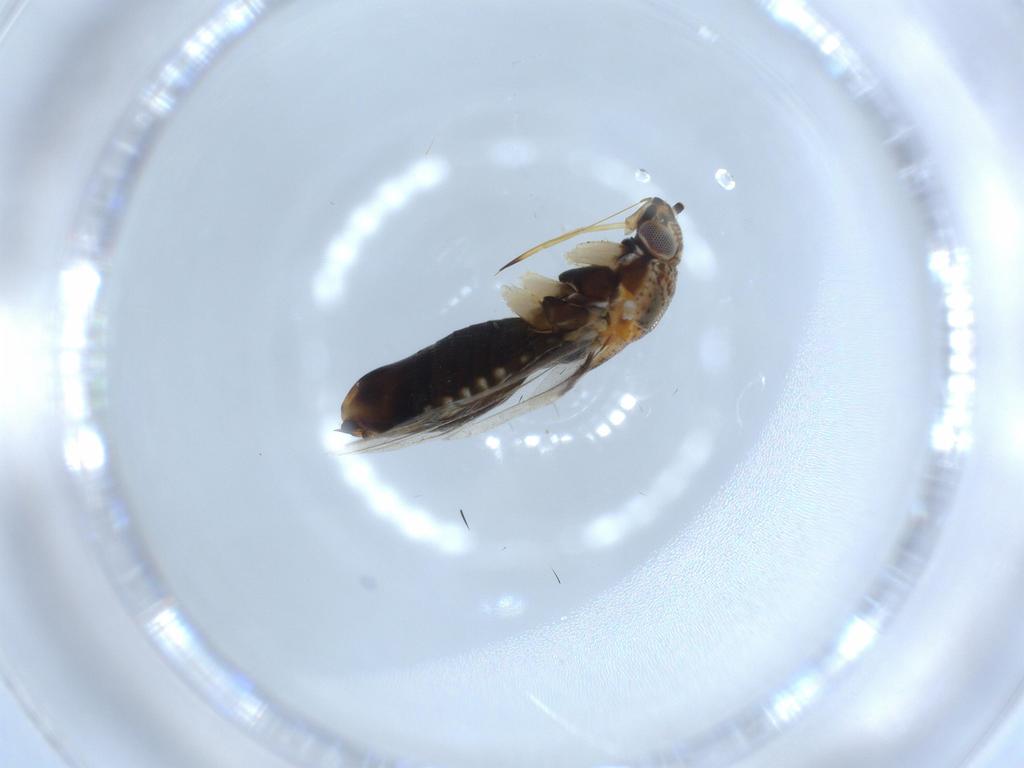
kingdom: Animalia
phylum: Arthropoda
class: Insecta
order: Hemiptera
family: Miridae
